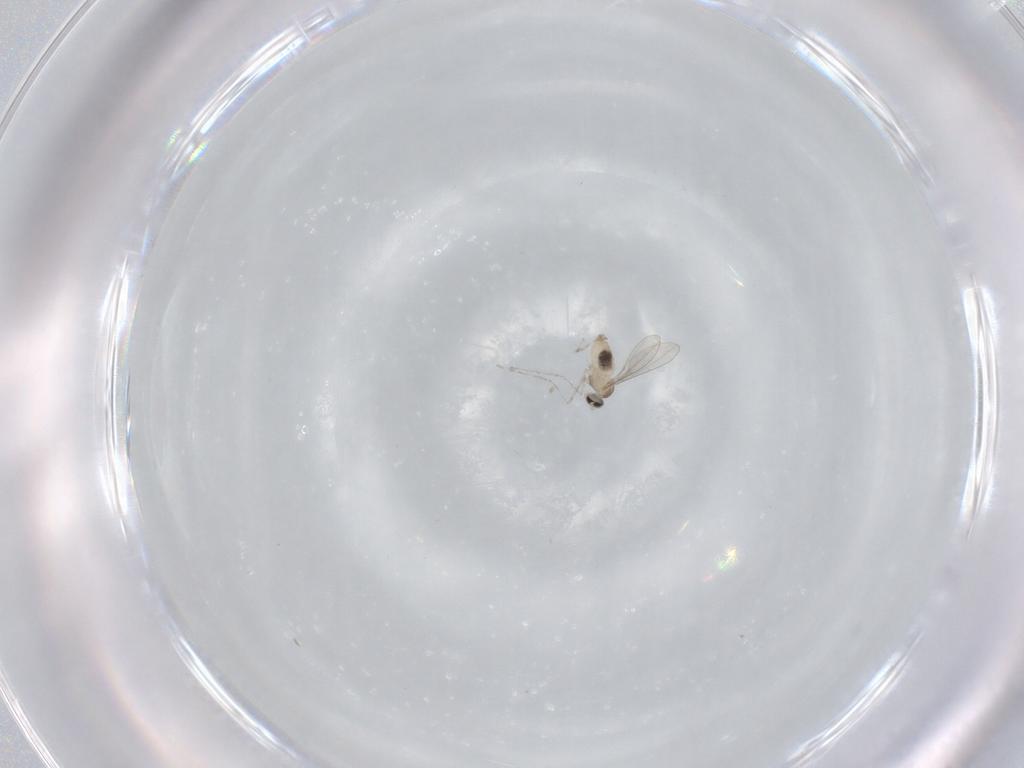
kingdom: Animalia
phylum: Arthropoda
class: Insecta
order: Diptera
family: Cecidomyiidae
